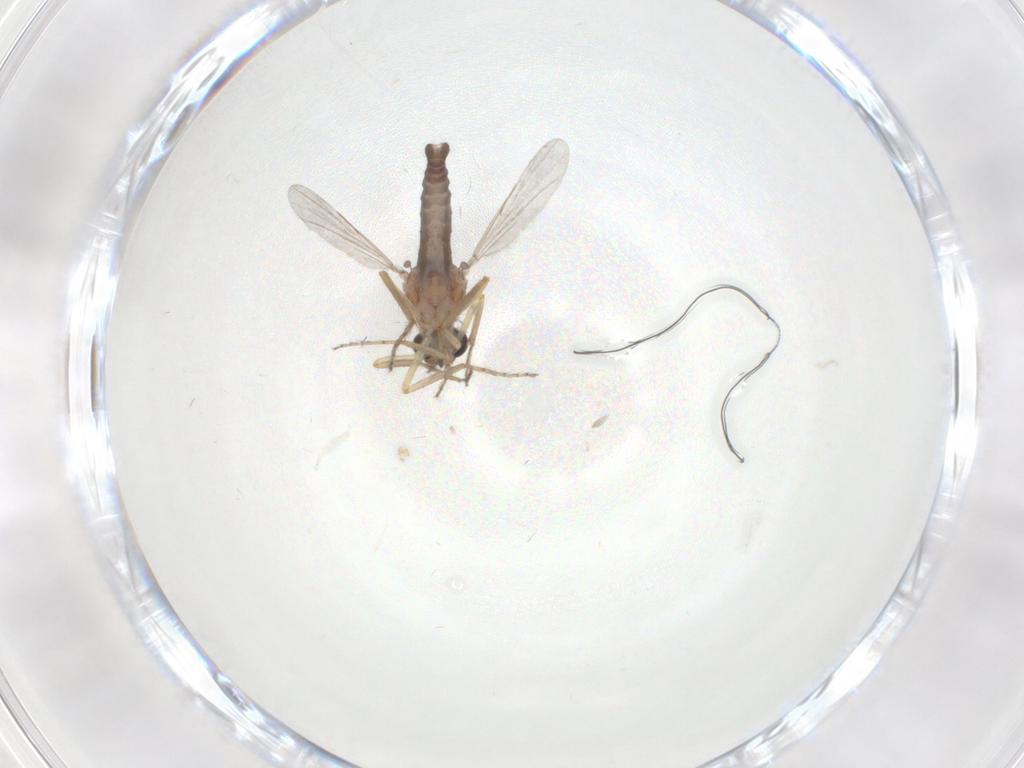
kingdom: Animalia
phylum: Arthropoda
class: Insecta
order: Diptera
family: Ceratopogonidae
